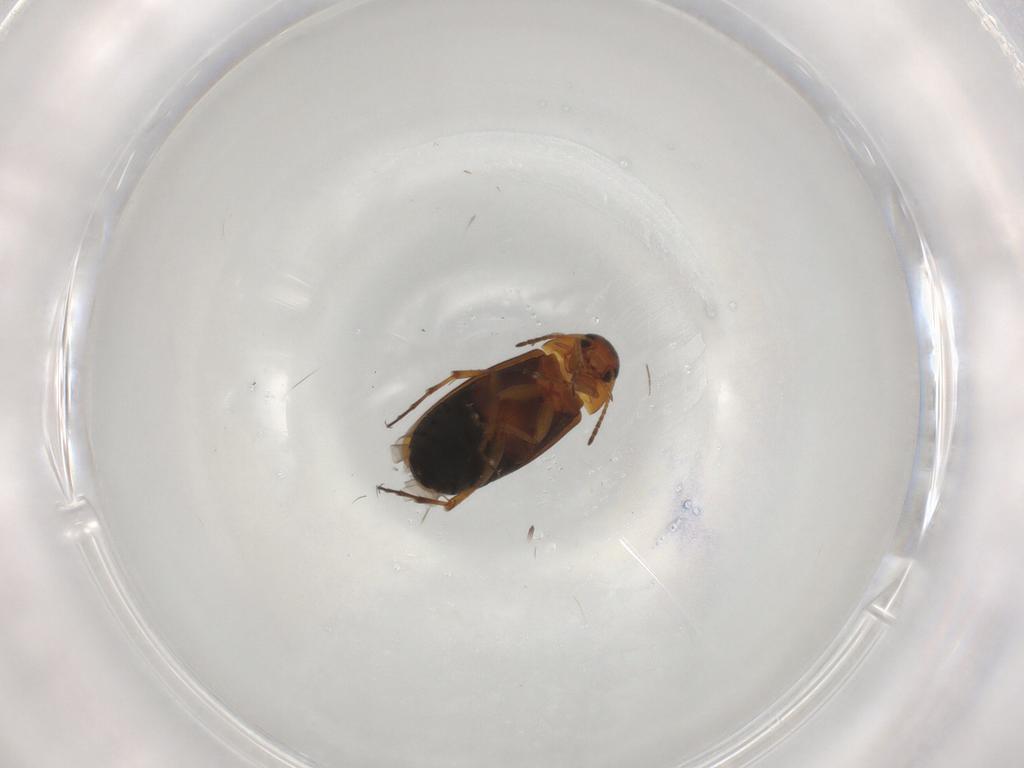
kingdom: Animalia
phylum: Arthropoda
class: Insecta
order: Coleoptera
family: Scraptiidae
